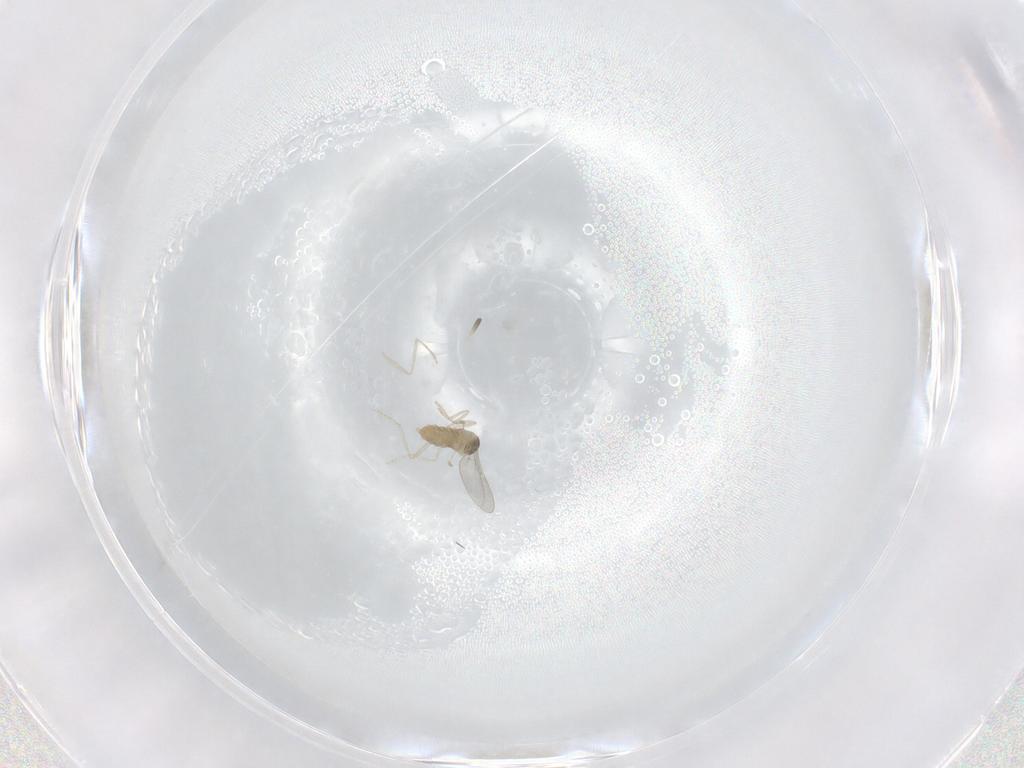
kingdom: Animalia
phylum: Arthropoda
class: Insecta
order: Diptera
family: Cecidomyiidae
